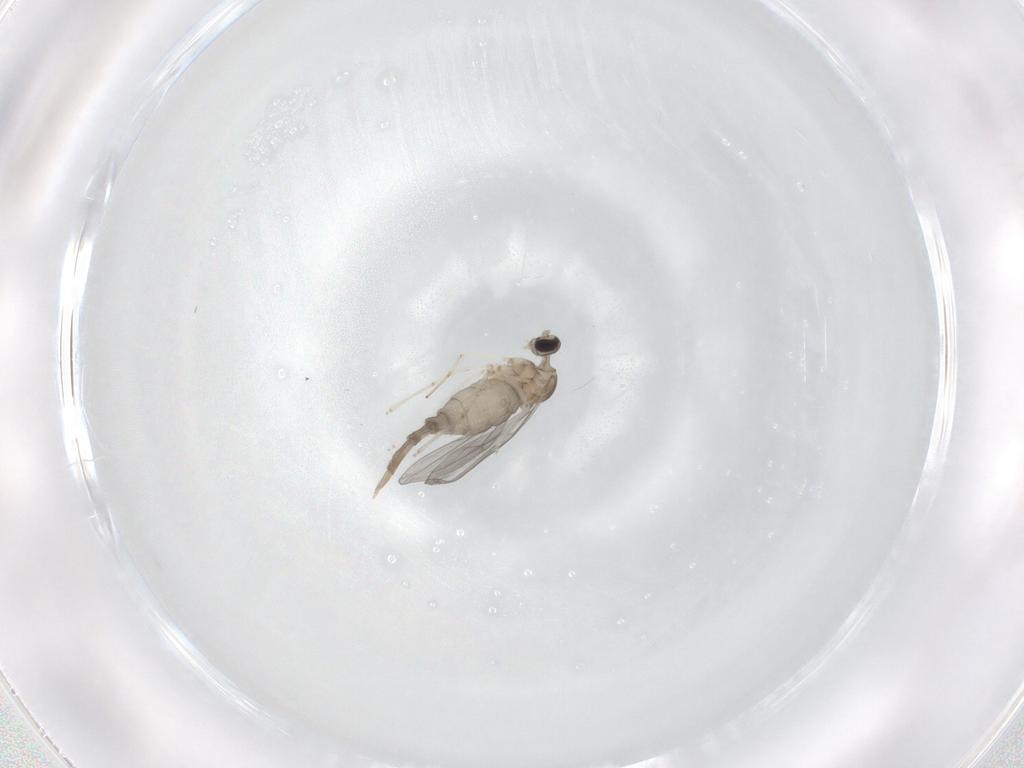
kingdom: Animalia
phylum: Arthropoda
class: Insecta
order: Diptera
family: Cecidomyiidae
